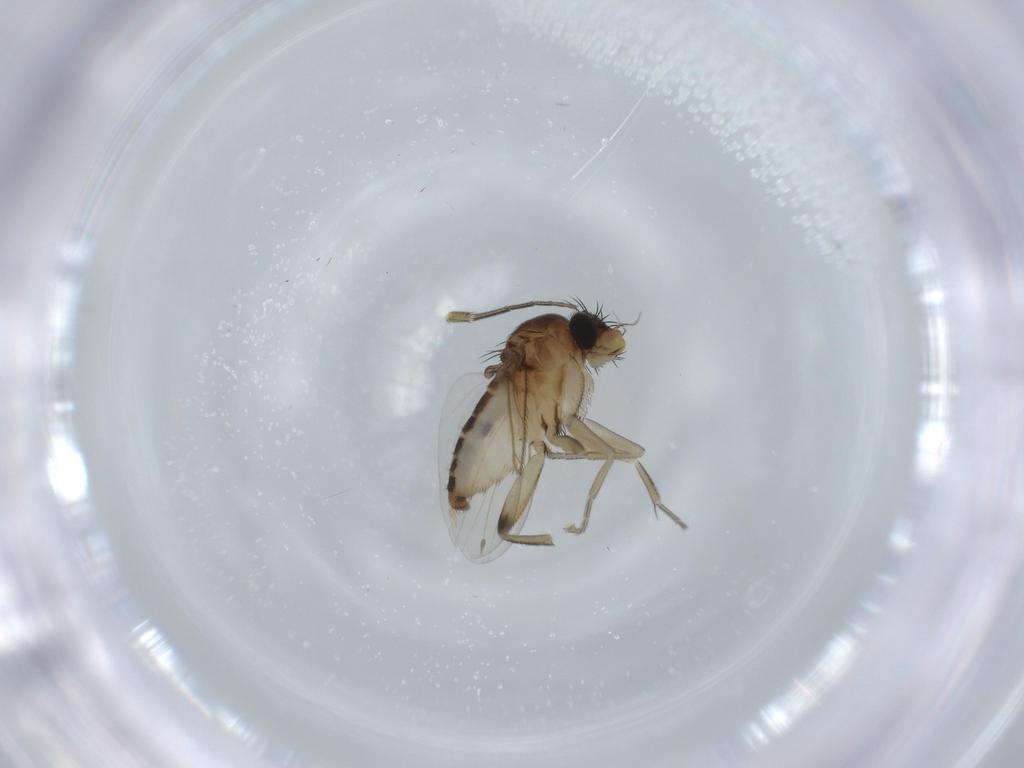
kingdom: Animalia
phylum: Arthropoda
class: Insecta
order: Diptera
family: Phoridae
